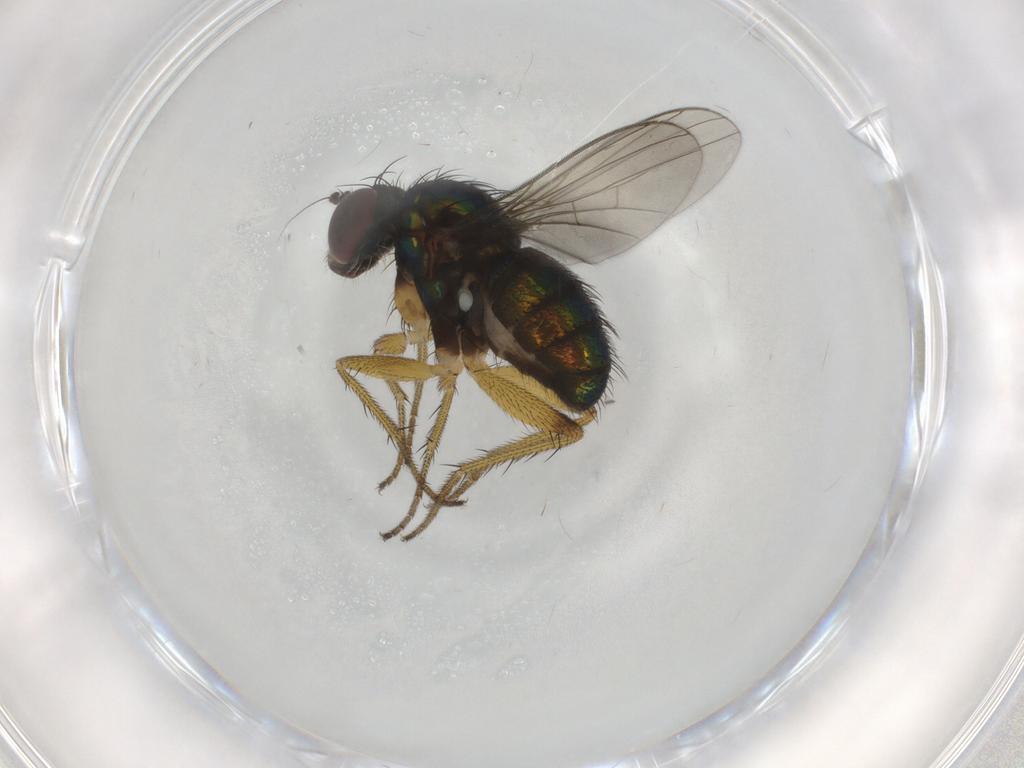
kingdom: Animalia
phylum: Arthropoda
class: Insecta
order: Diptera
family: Dolichopodidae
